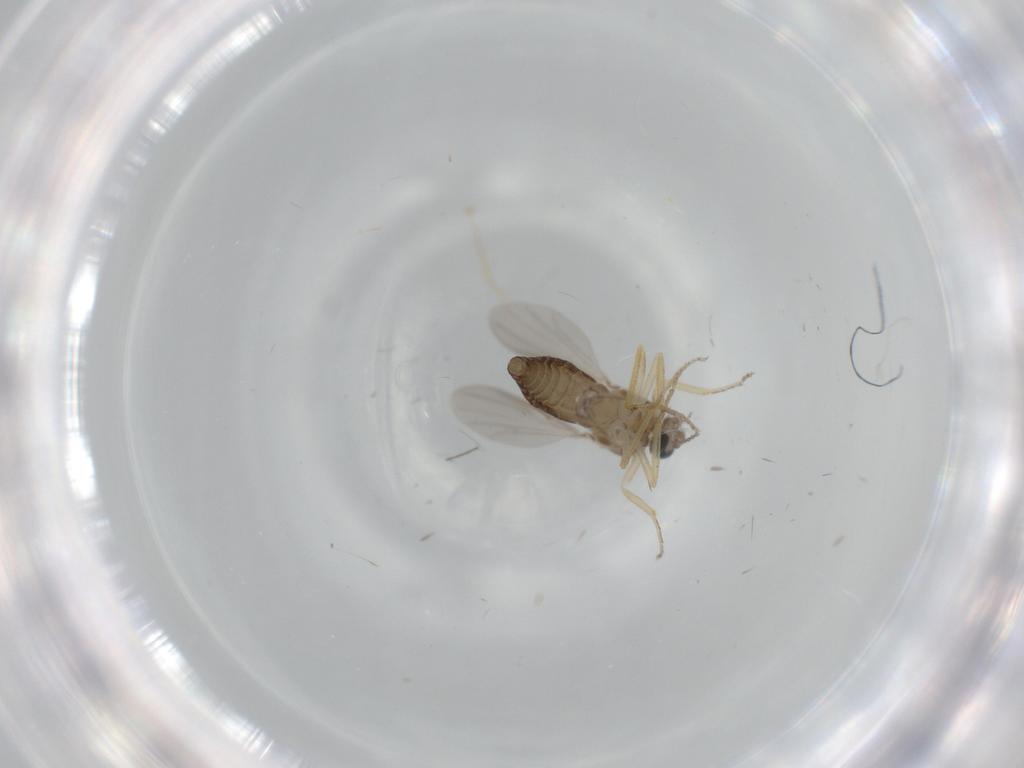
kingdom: Animalia
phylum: Arthropoda
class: Insecta
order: Diptera
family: Ceratopogonidae
